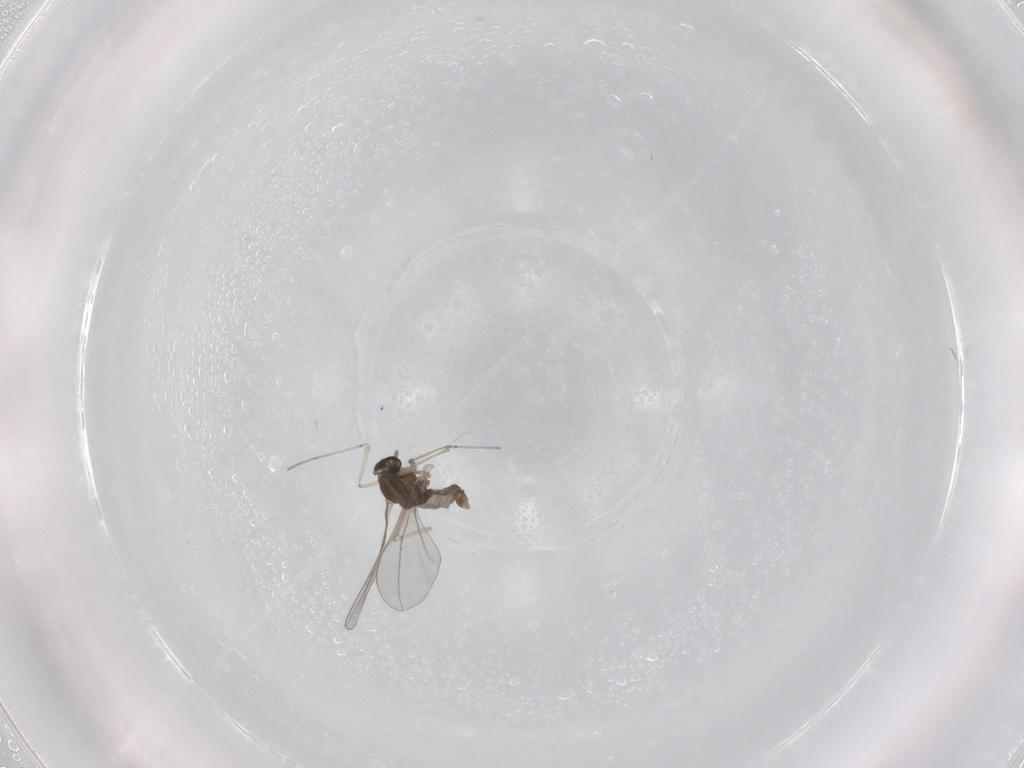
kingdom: Animalia
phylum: Arthropoda
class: Insecta
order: Diptera
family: Cecidomyiidae
